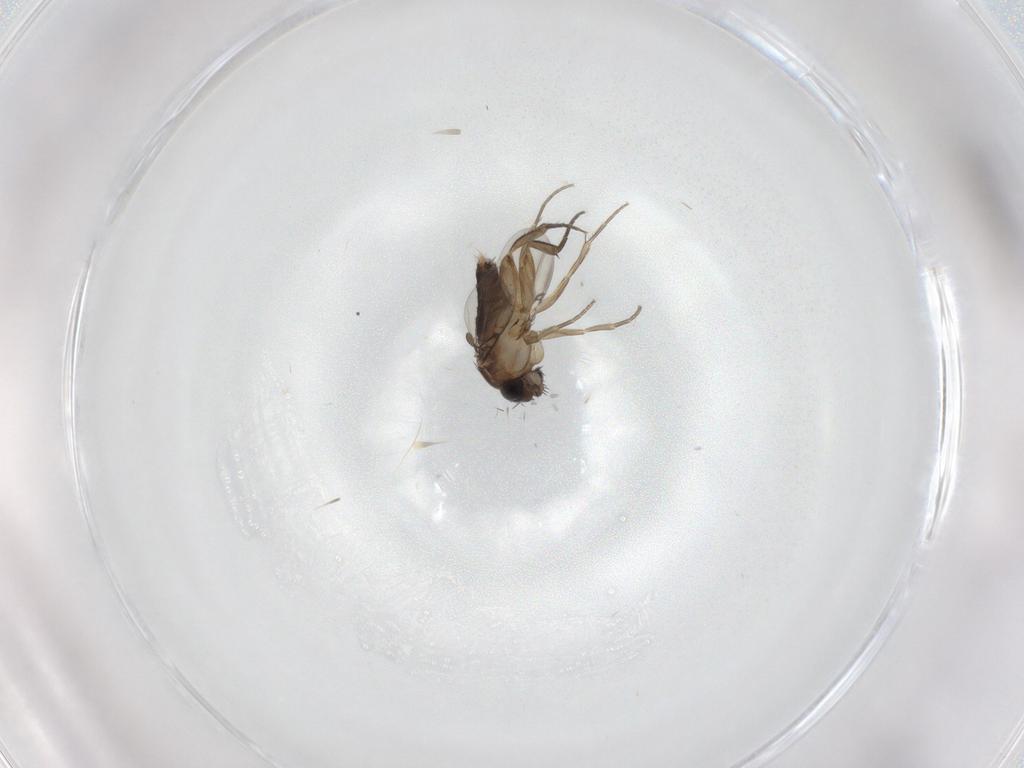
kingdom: Animalia
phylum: Arthropoda
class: Insecta
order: Diptera
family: Phoridae
